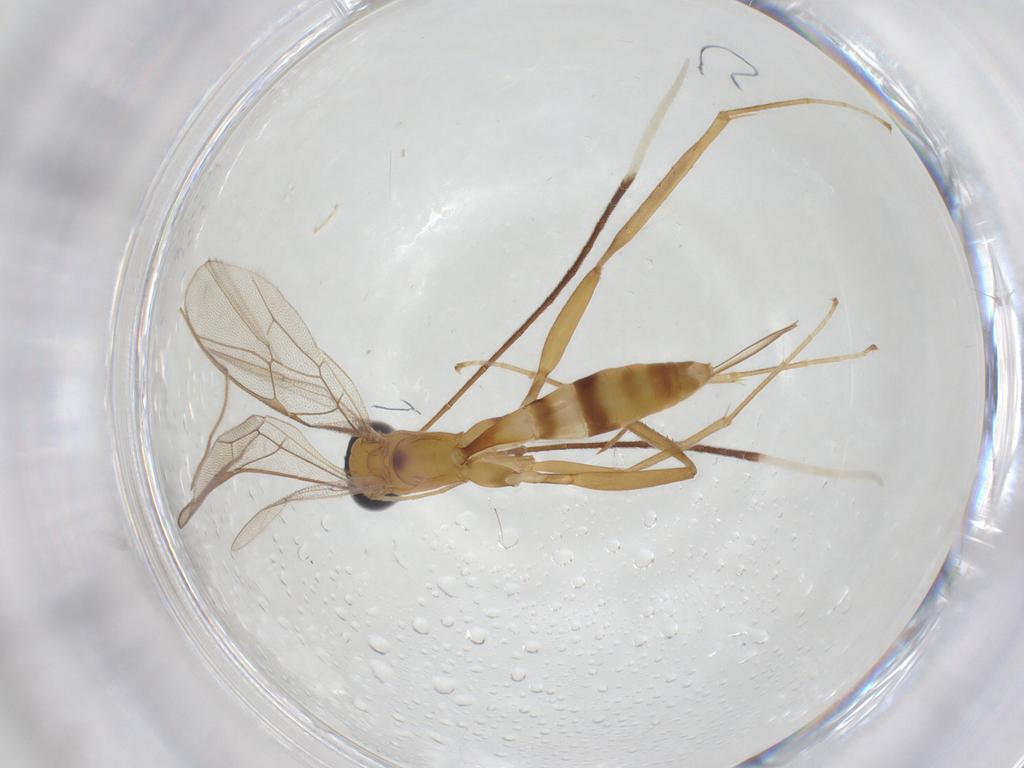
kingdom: Animalia
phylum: Arthropoda
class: Insecta
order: Hymenoptera
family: Ichneumonidae
